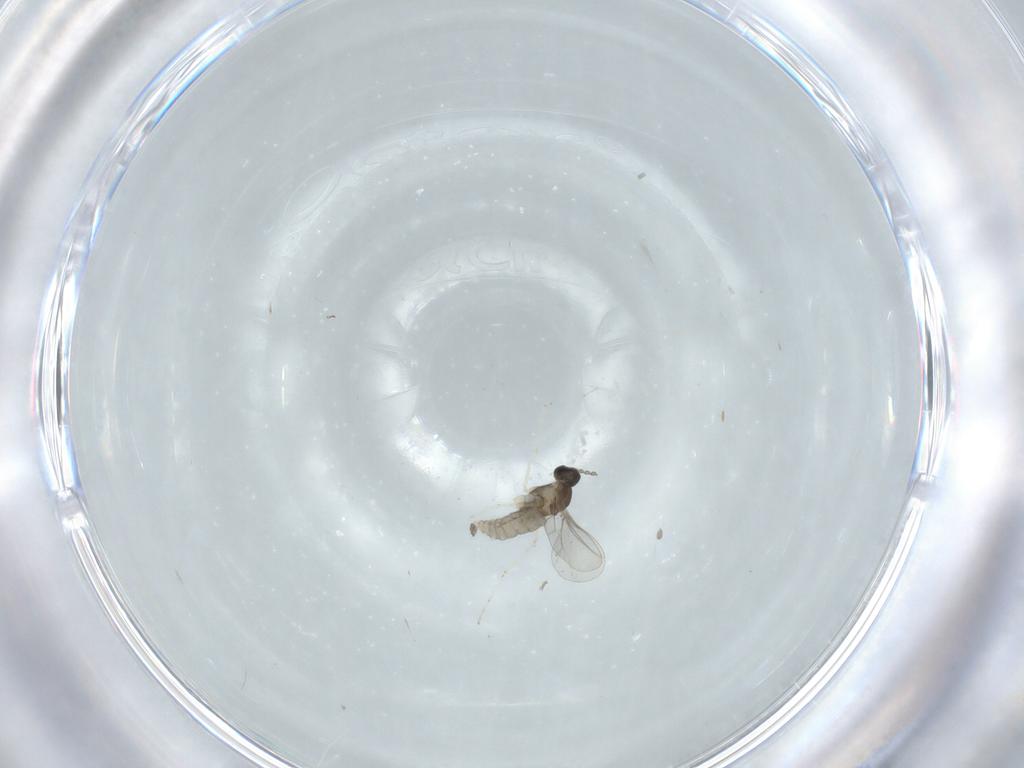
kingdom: Animalia
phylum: Arthropoda
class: Insecta
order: Diptera
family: Cecidomyiidae
